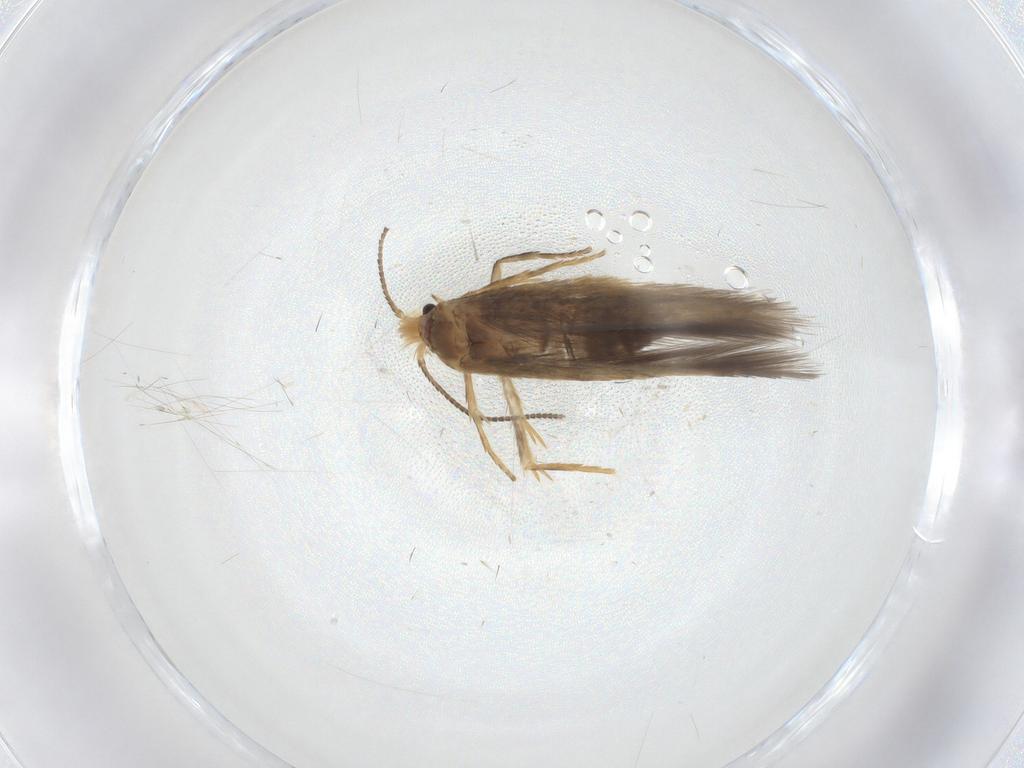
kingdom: Animalia
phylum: Arthropoda
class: Insecta
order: Lepidoptera
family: Nepticulidae
